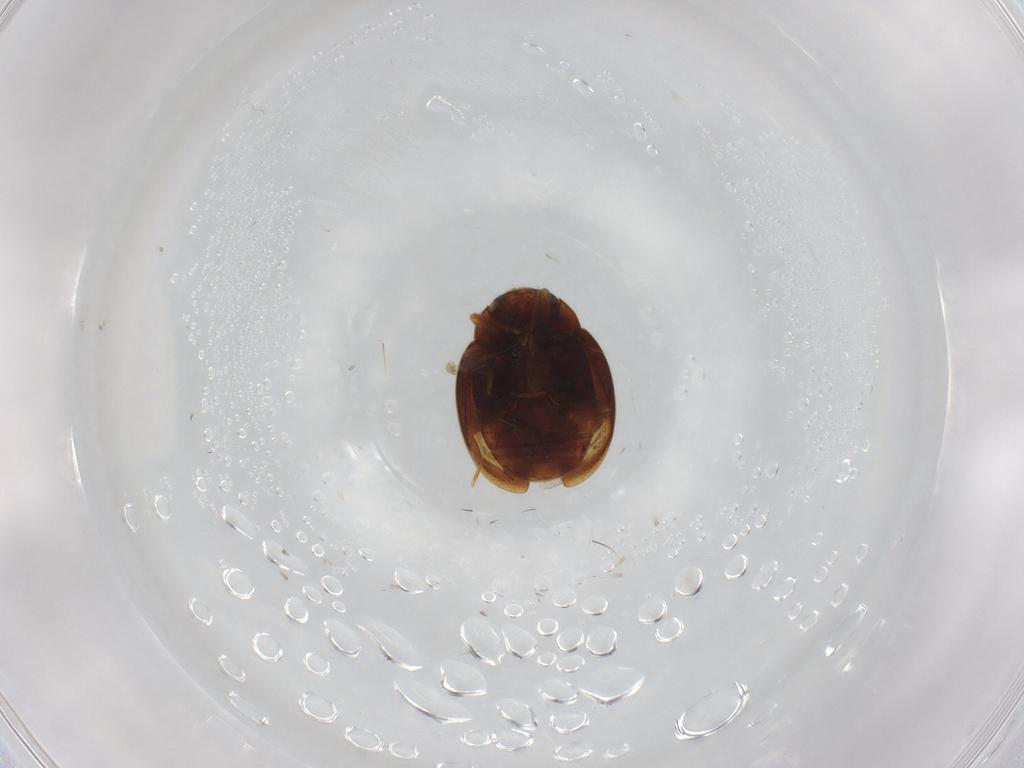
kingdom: Animalia
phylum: Arthropoda
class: Insecta
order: Coleoptera
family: Coccinellidae
